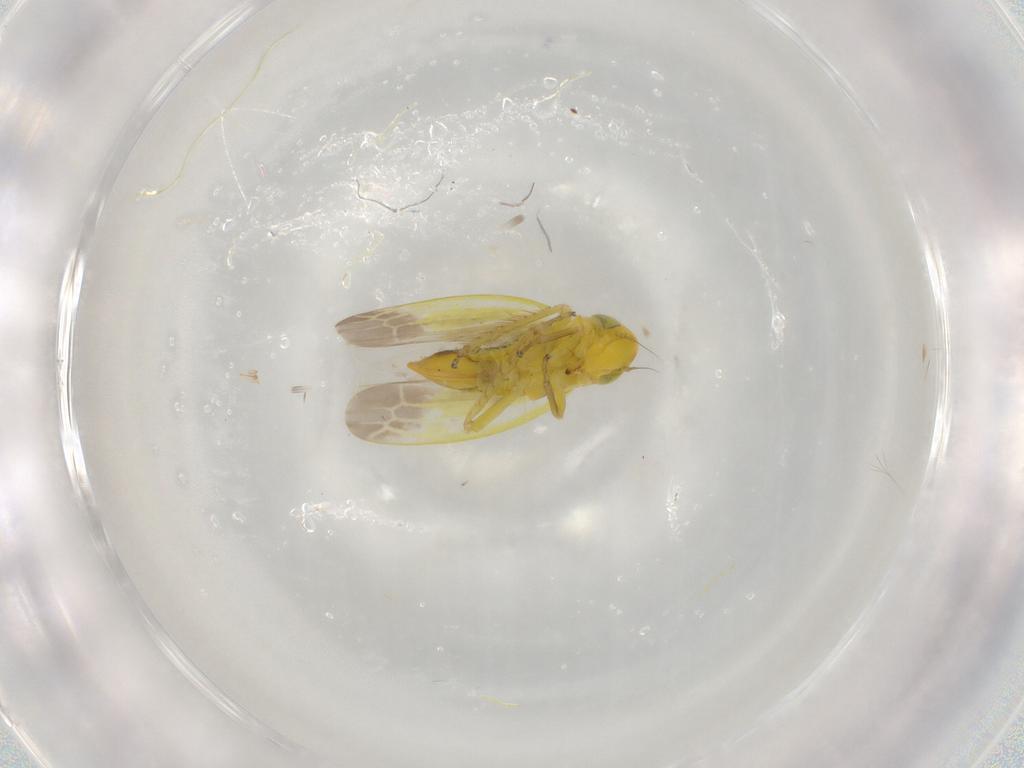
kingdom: Animalia
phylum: Arthropoda
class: Insecta
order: Hemiptera
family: Cicadellidae
